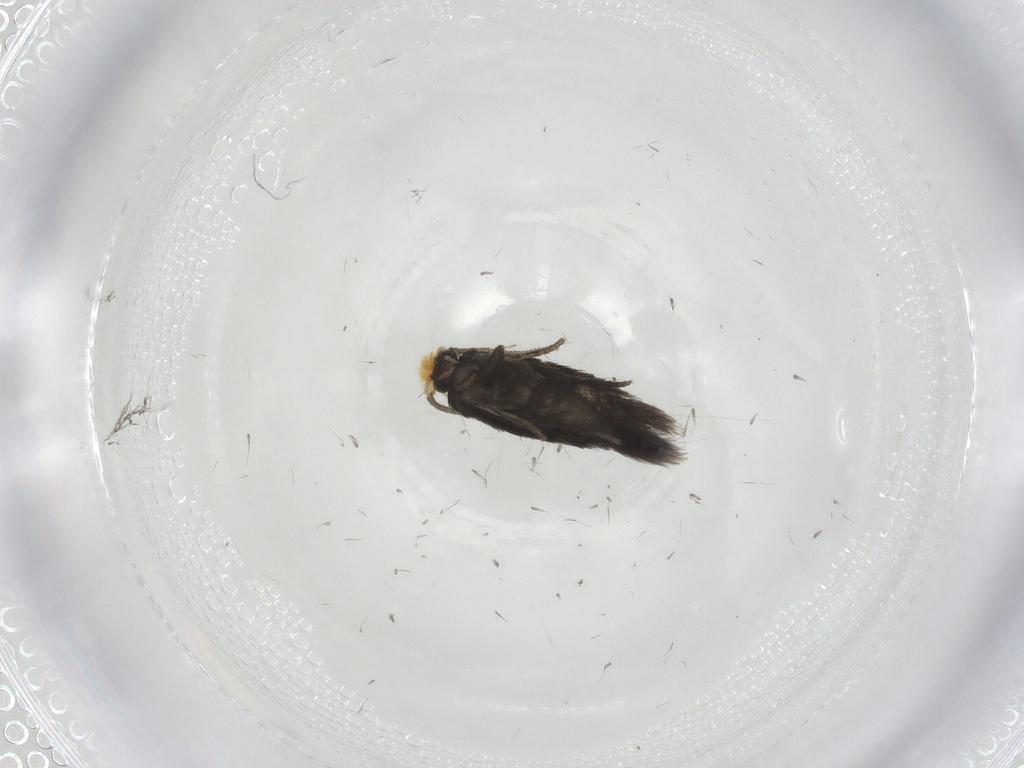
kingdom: Animalia
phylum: Arthropoda
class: Insecta
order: Lepidoptera
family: Nepticulidae
